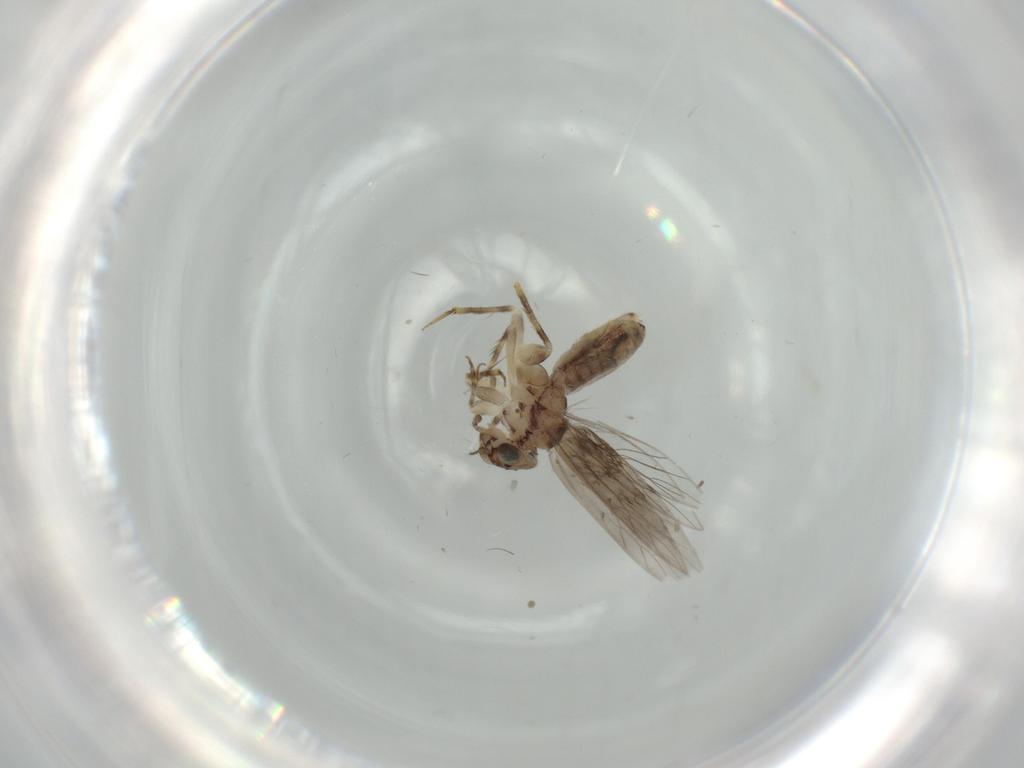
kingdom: Animalia
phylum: Arthropoda
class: Insecta
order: Psocodea
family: Lepidopsocidae
